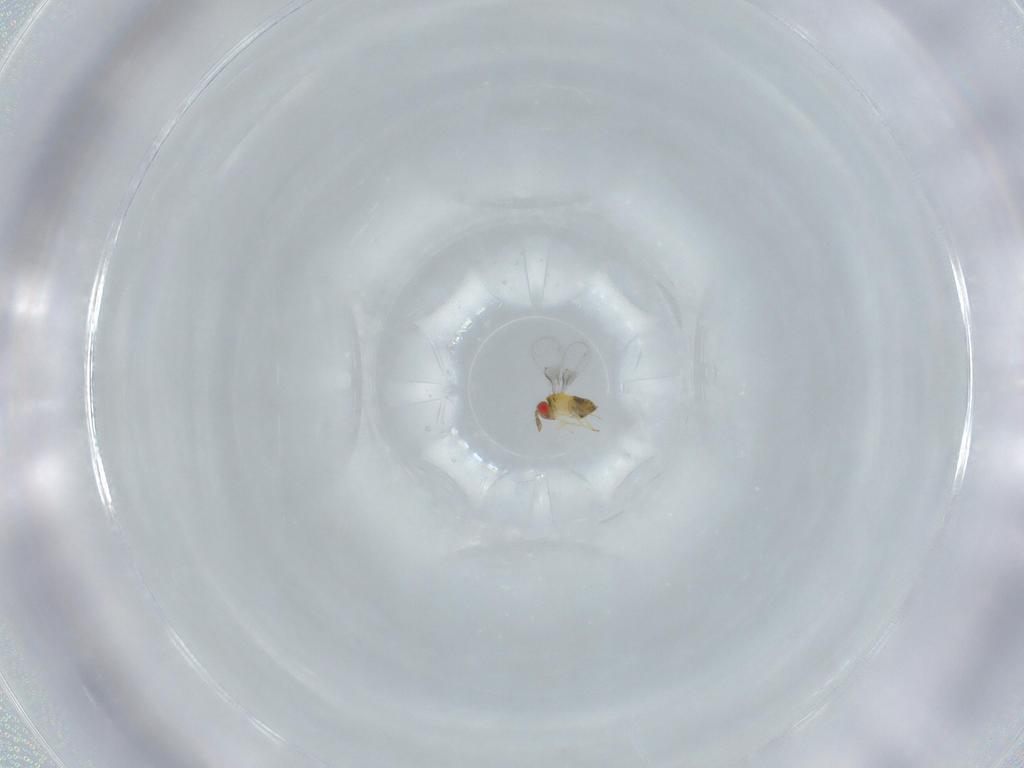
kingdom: Animalia
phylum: Arthropoda
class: Insecta
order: Hymenoptera
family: Trichogrammatidae
